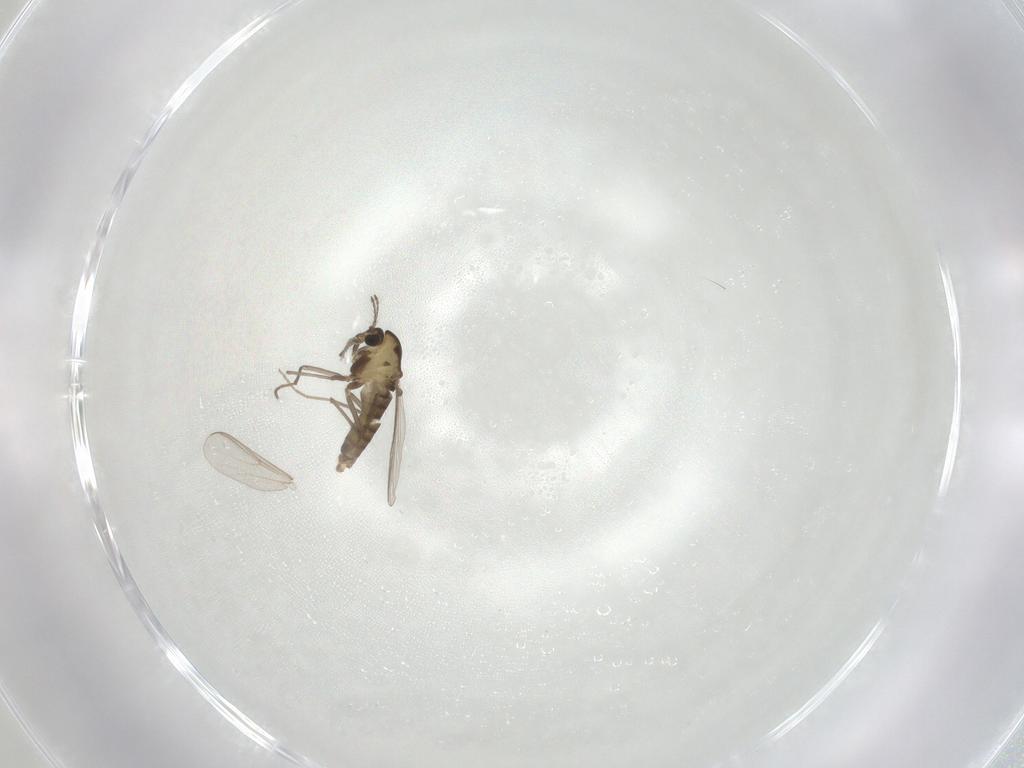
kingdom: Animalia
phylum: Arthropoda
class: Insecta
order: Diptera
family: Chironomidae
